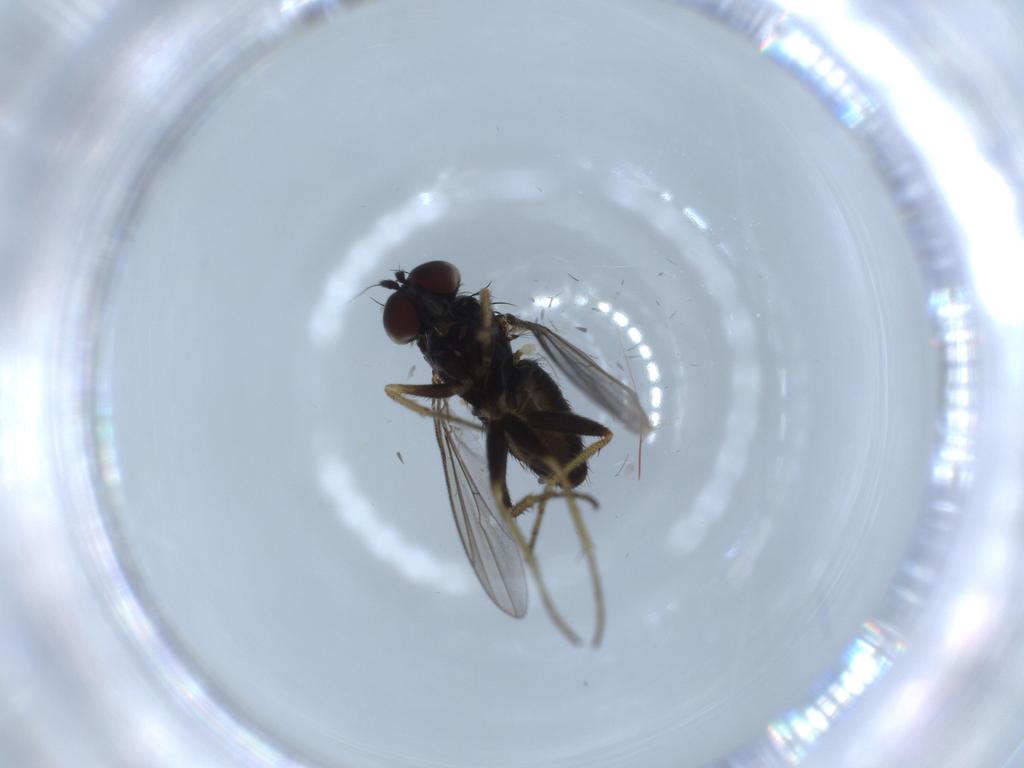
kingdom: Animalia
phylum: Arthropoda
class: Insecta
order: Diptera
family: Dolichopodidae
